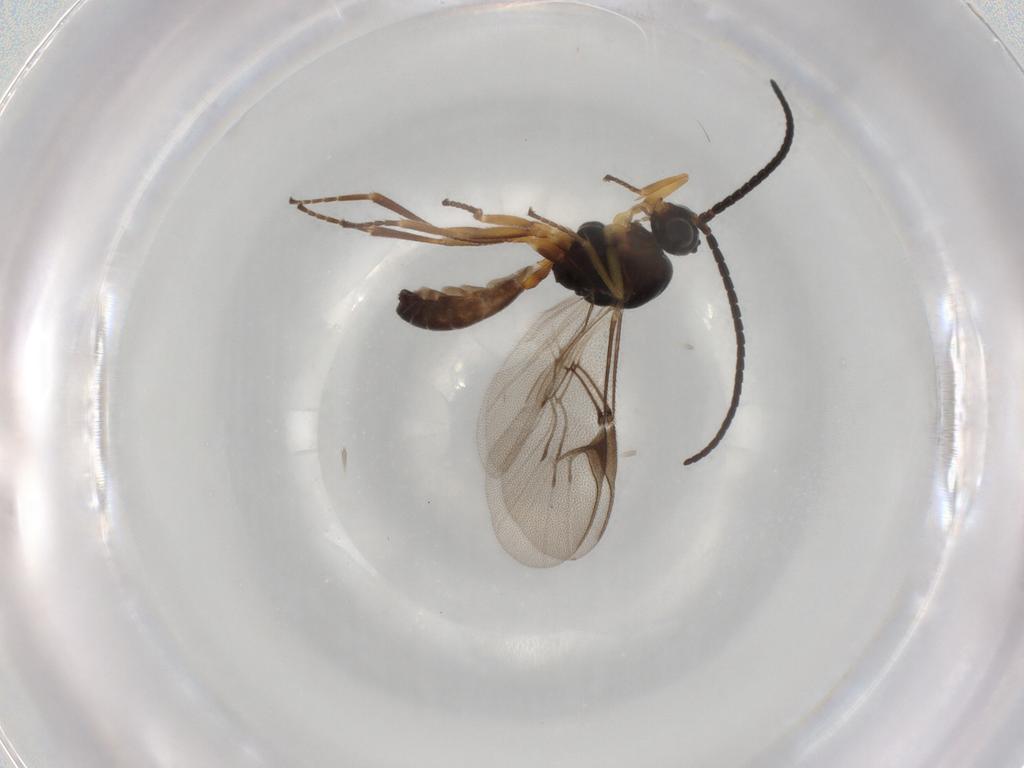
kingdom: Animalia
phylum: Arthropoda
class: Insecta
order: Hymenoptera
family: Braconidae
